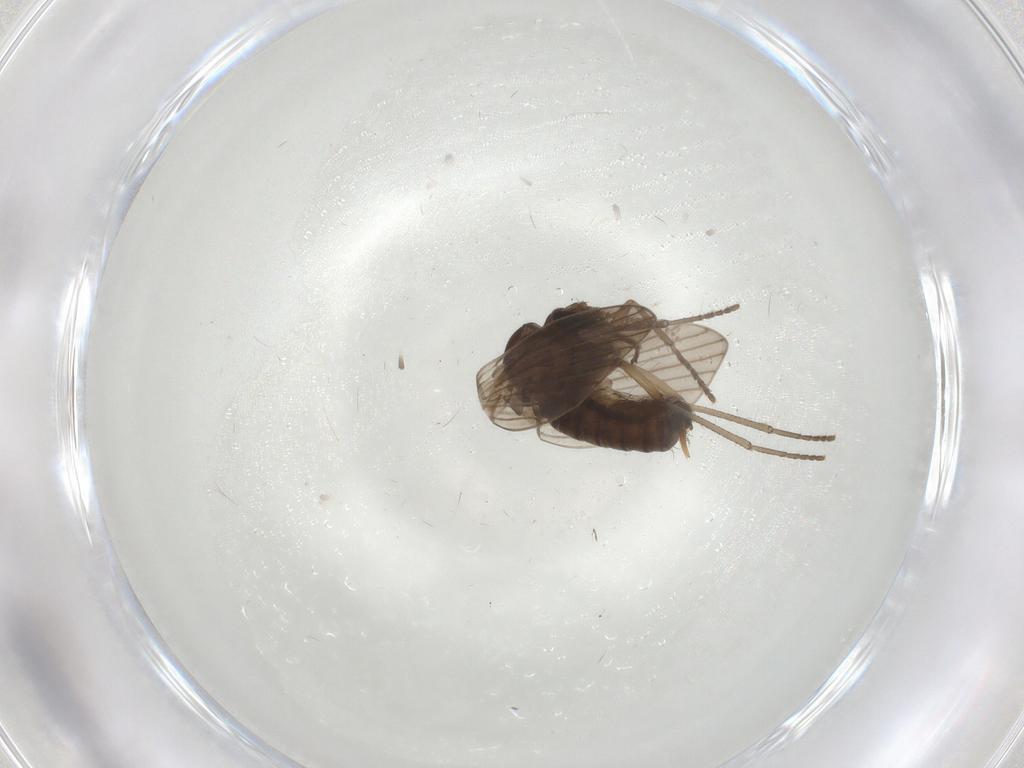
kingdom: Animalia
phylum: Arthropoda
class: Insecta
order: Diptera
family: Psychodidae
